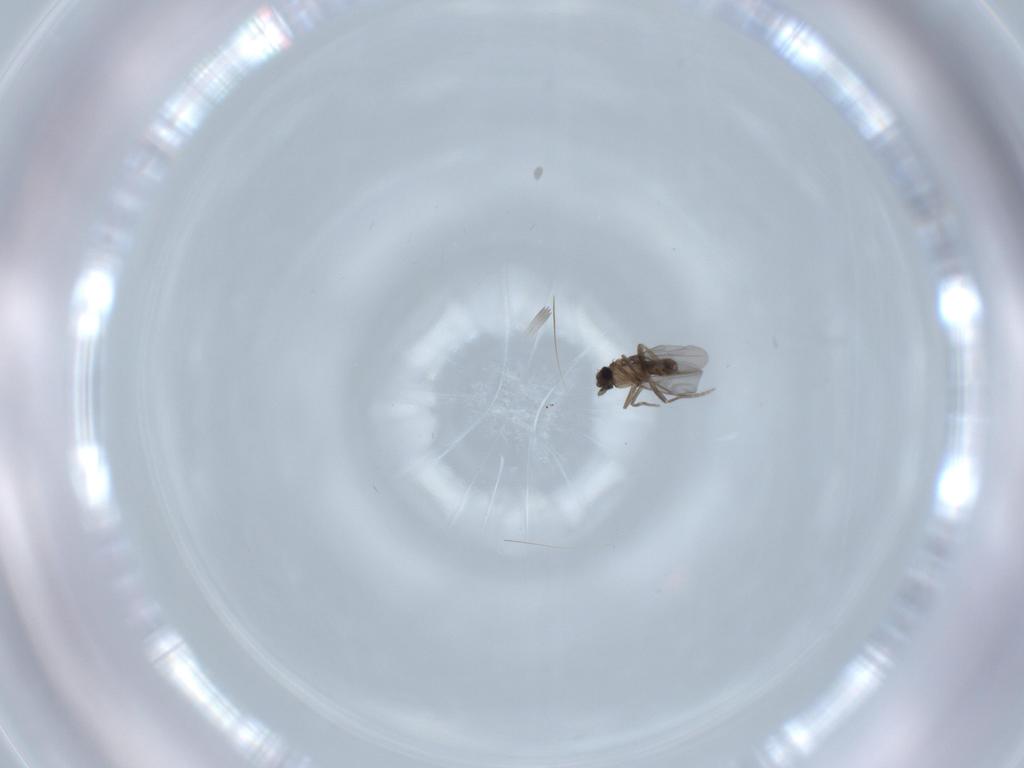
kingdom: Animalia
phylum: Arthropoda
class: Insecta
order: Diptera
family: Phoridae
